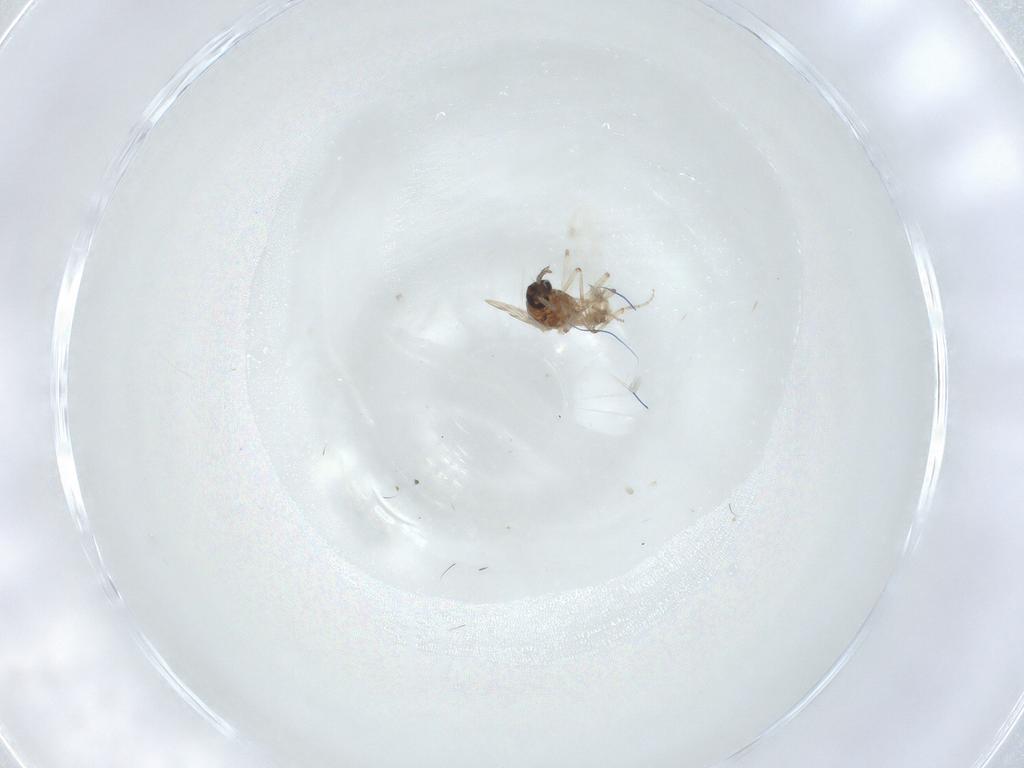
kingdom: Animalia
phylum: Arthropoda
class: Insecta
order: Diptera
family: Ceratopogonidae
